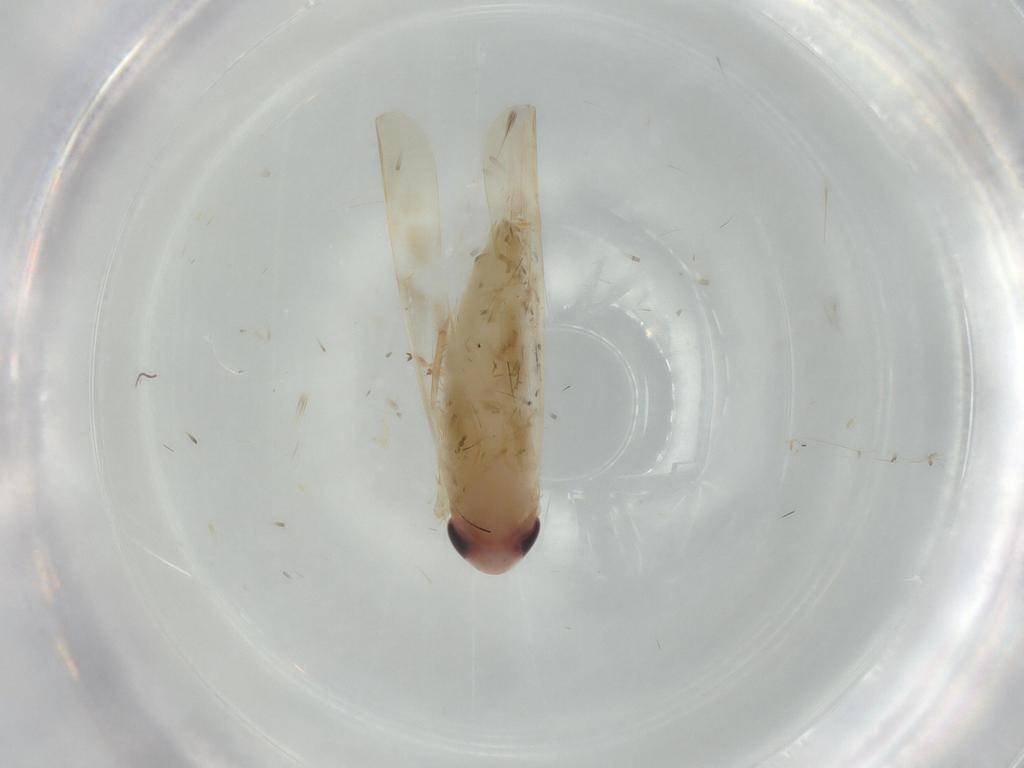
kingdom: Animalia
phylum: Arthropoda
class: Insecta
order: Hemiptera
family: Cicadellidae
